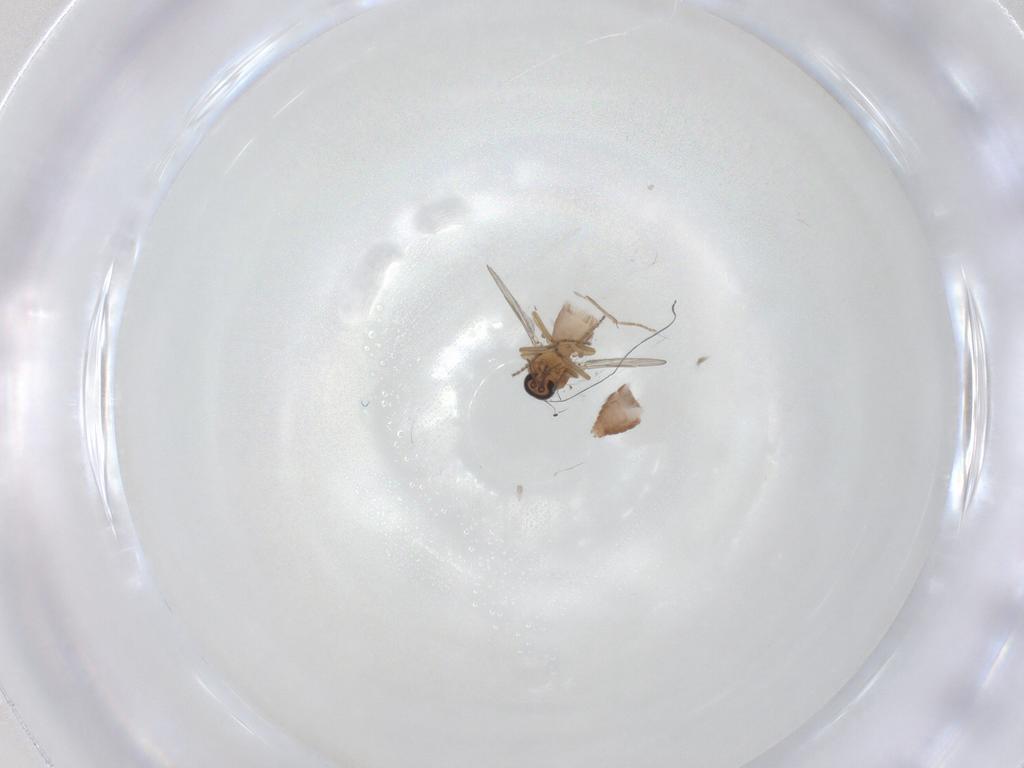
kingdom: Animalia
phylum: Arthropoda
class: Insecta
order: Diptera
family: Ceratopogonidae
